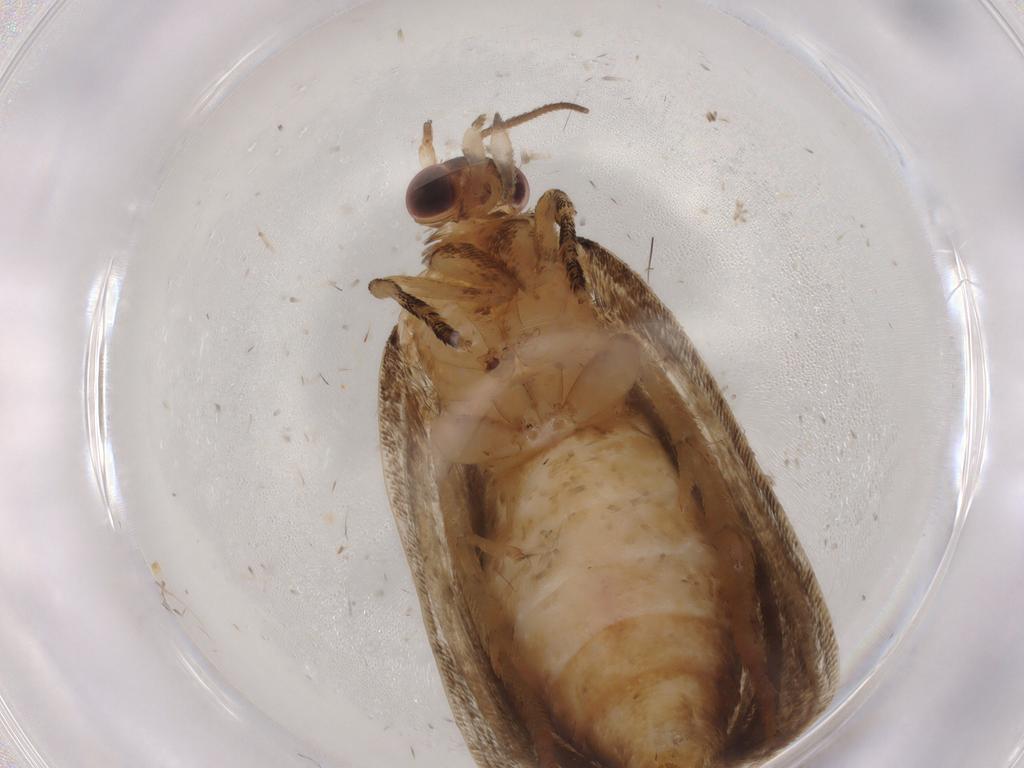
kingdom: Animalia
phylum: Arthropoda
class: Insecta
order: Lepidoptera
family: Tortricidae
